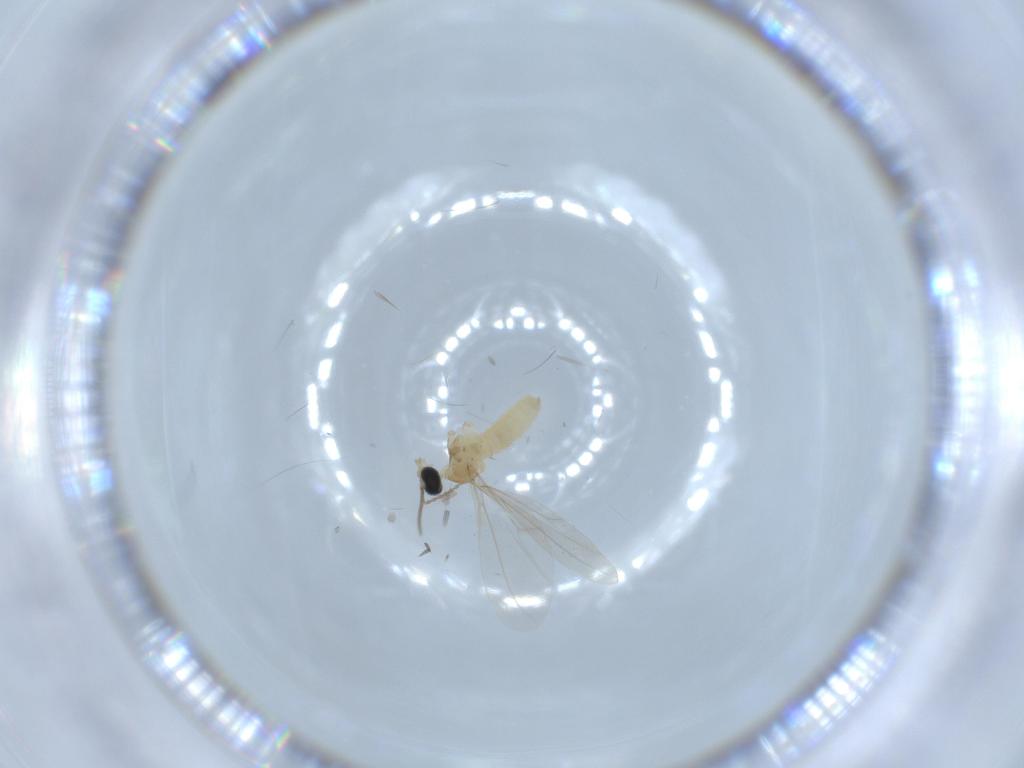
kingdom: Animalia
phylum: Arthropoda
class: Insecta
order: Diptera
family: Cecidomyiidae
